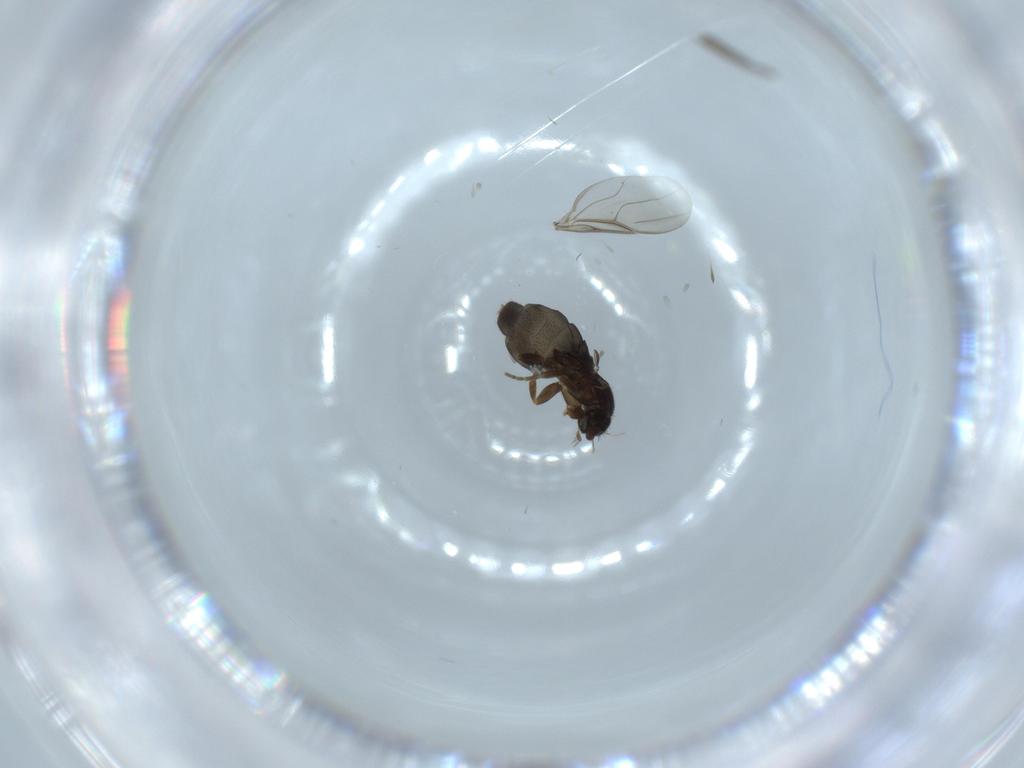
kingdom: Animalia
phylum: Arthropoda
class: Insecta
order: Diptera
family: Phoridae
